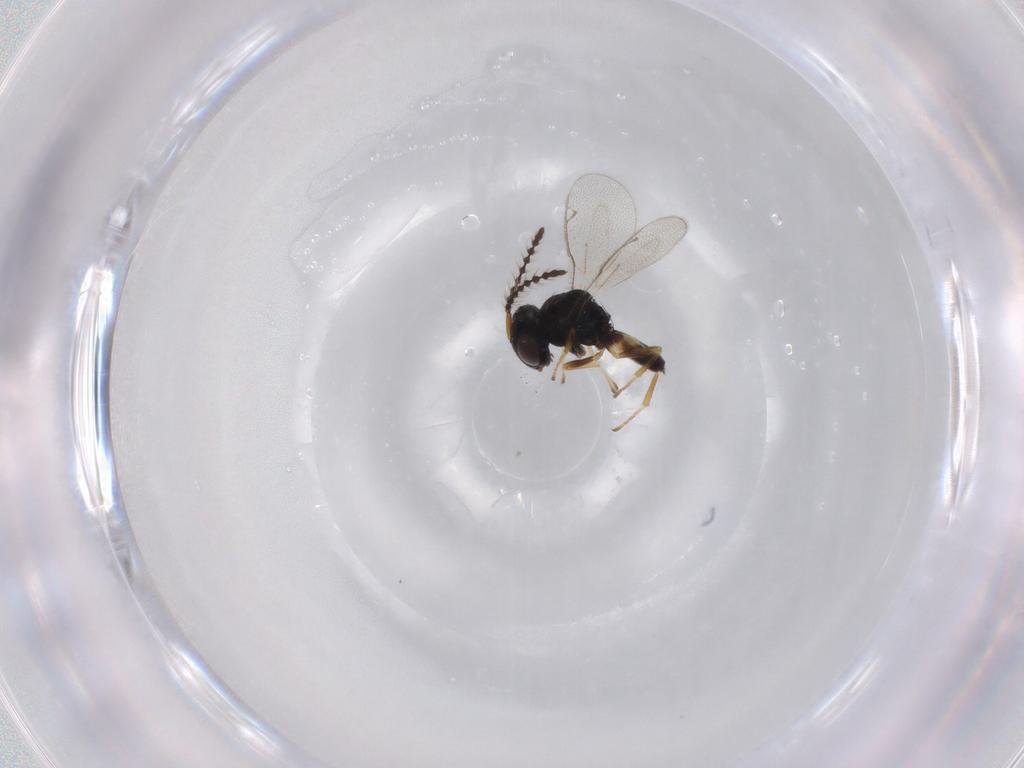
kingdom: Animalia
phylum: Arthropoda
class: Insecta
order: Hymenoptera
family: Pteromalidae
